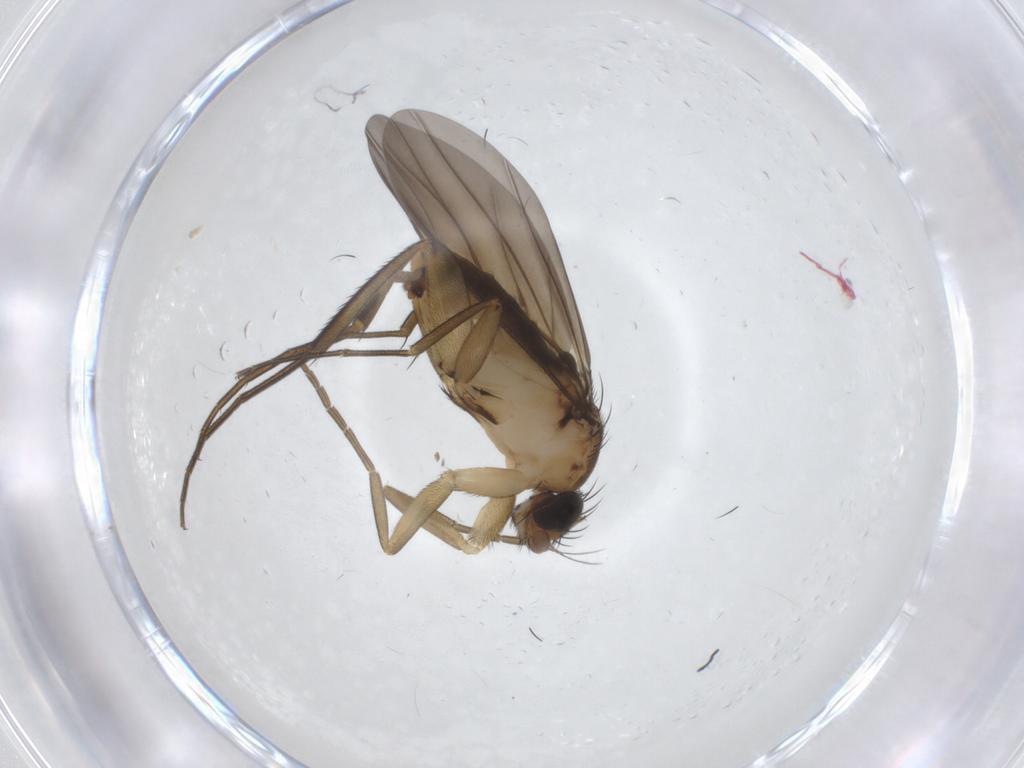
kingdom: Animalia
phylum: Arthropoda
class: Insecta
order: Diptera
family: Phoridae
